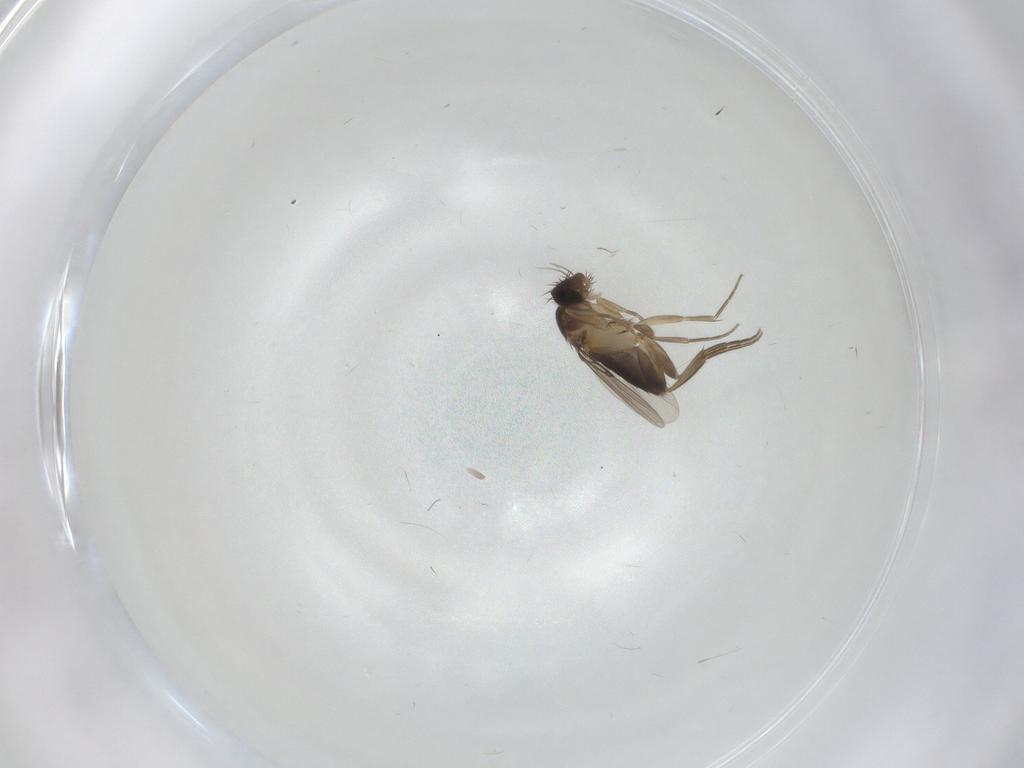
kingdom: Animalia
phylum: Arthropoda
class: Insecta
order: Diptera
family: Phoridae
